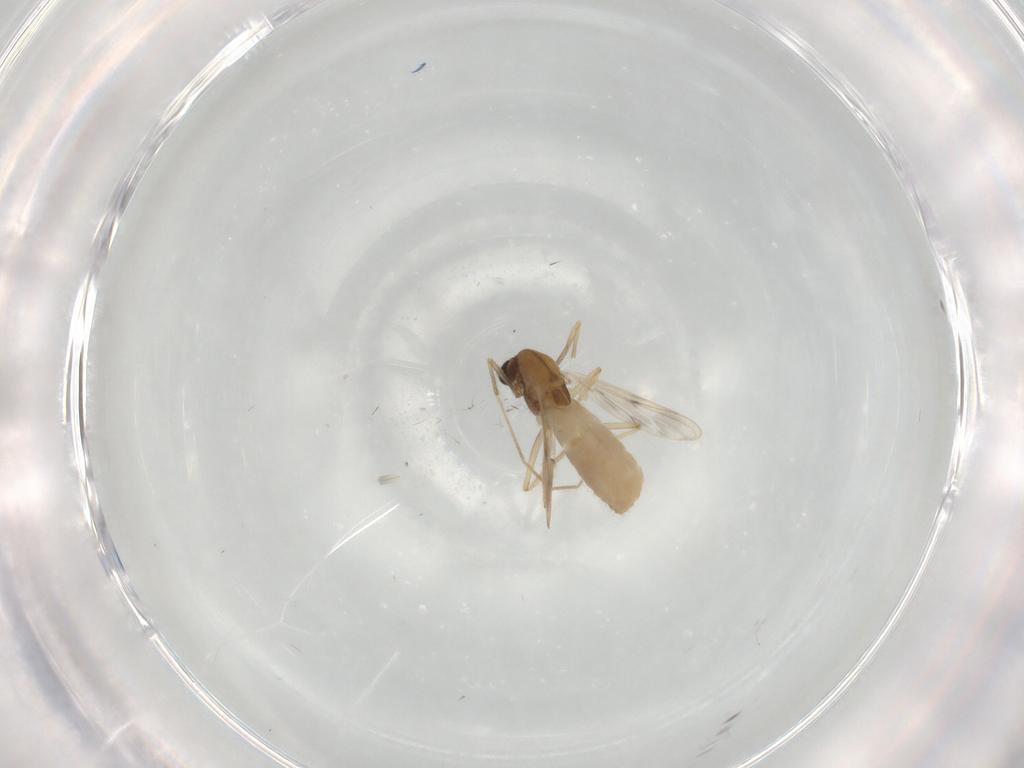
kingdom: Animalia
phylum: Arthropoda
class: Insecta
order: Diptera
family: Chironomidae
